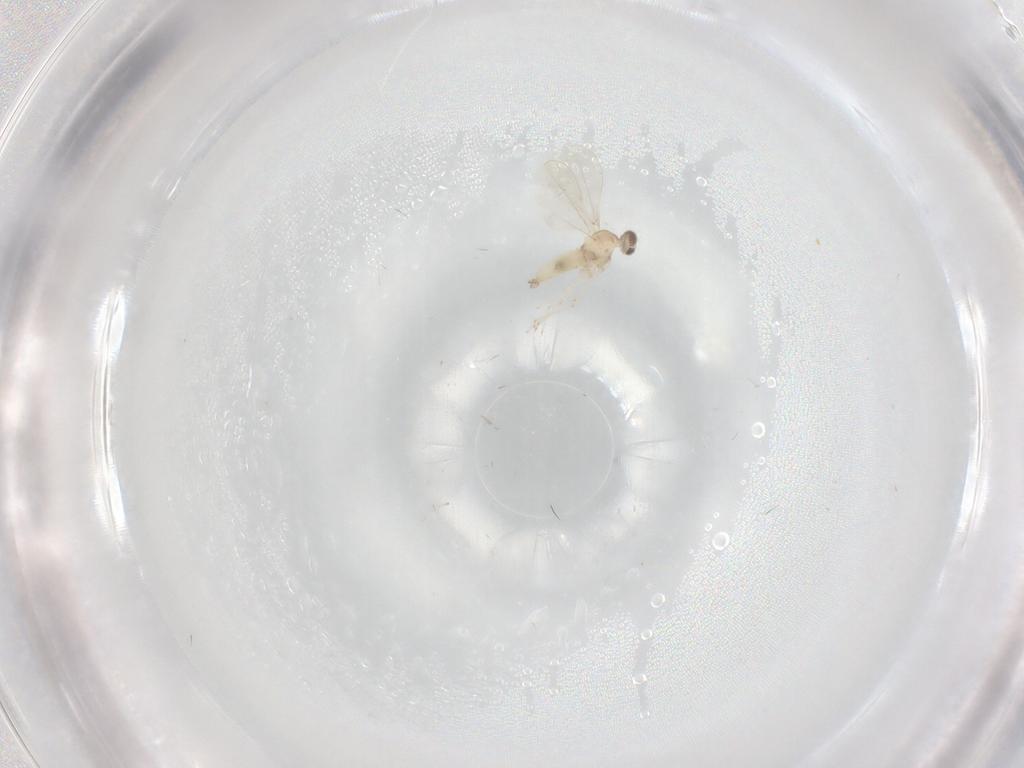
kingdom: Animalia
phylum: Arthropoda
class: Insecta
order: Diptera
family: Cecidomyiidae
